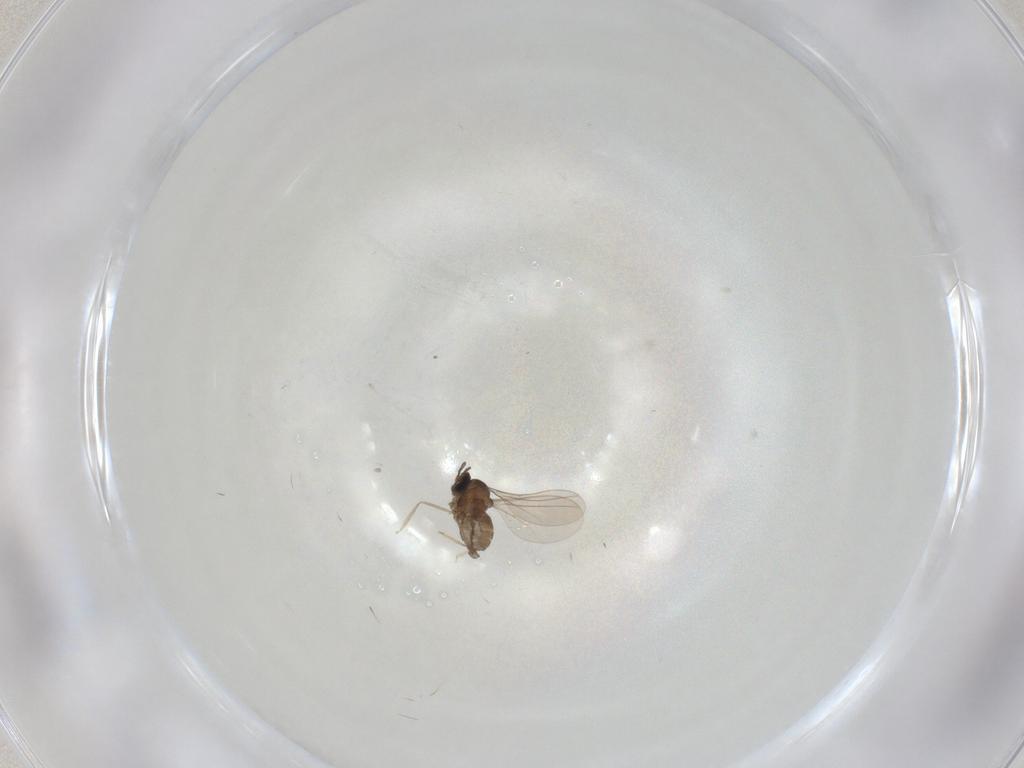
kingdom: Animalia
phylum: Arthropoda
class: Insecta
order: Diptera
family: Cecidomyiidae
